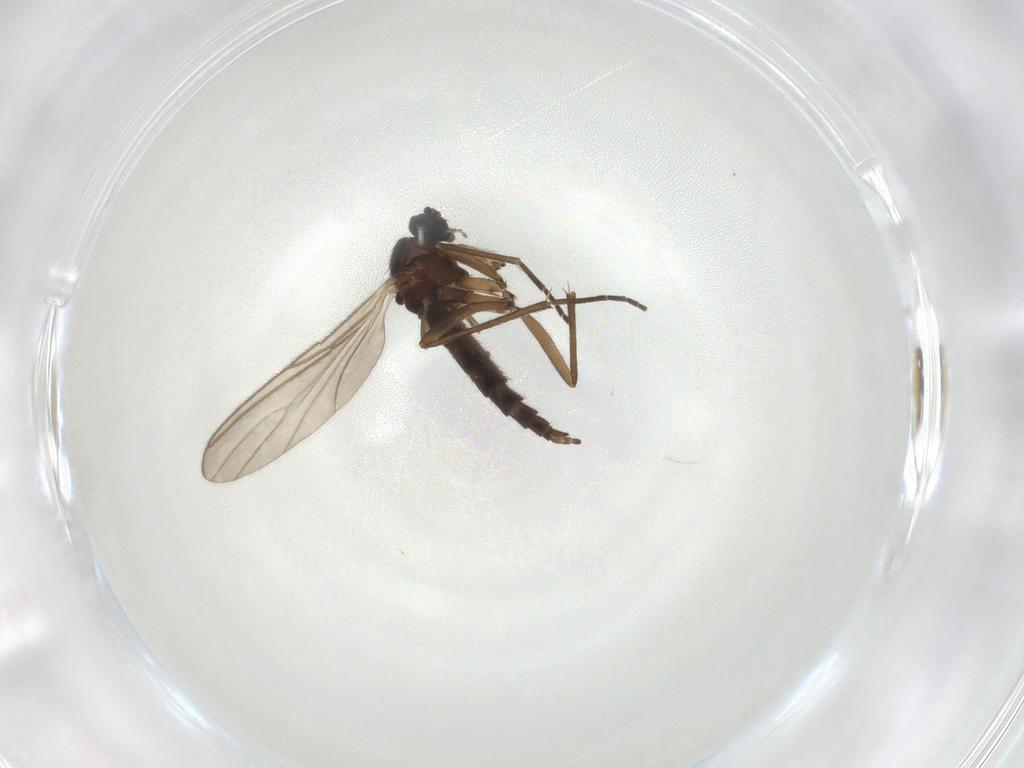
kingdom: Animalia
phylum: Arthropoda
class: Insecta
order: Diptera
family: Sciaridae
